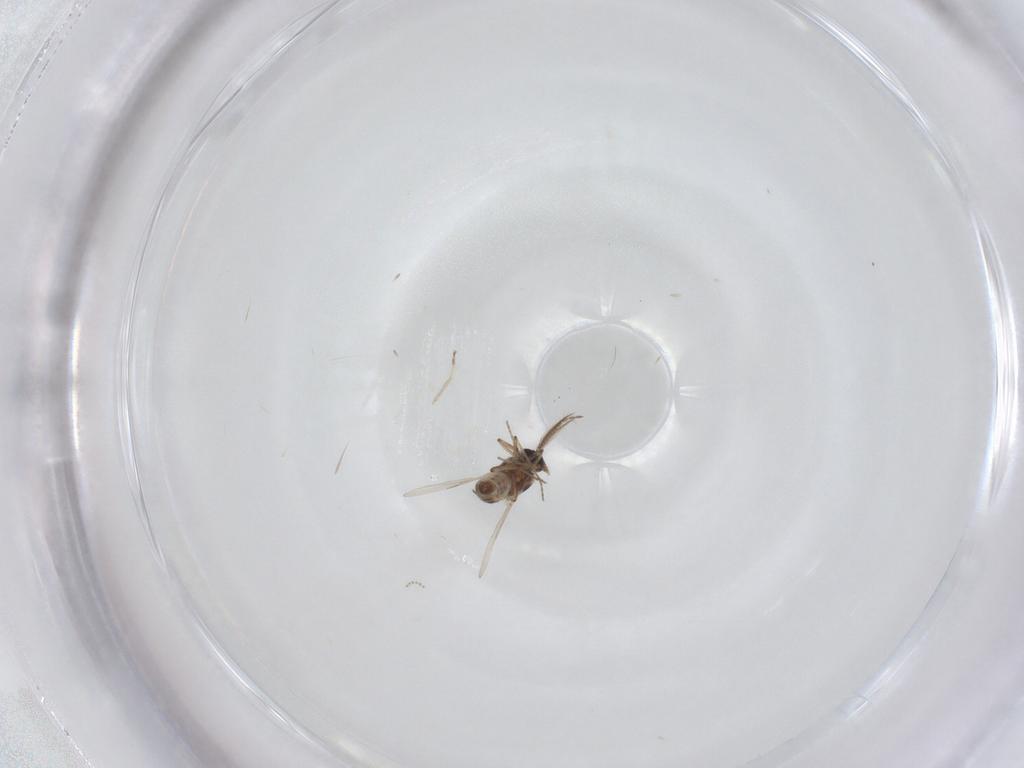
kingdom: Animalia
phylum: Arthropoda
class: Insecta
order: Diptera
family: Cecidomyiidae
